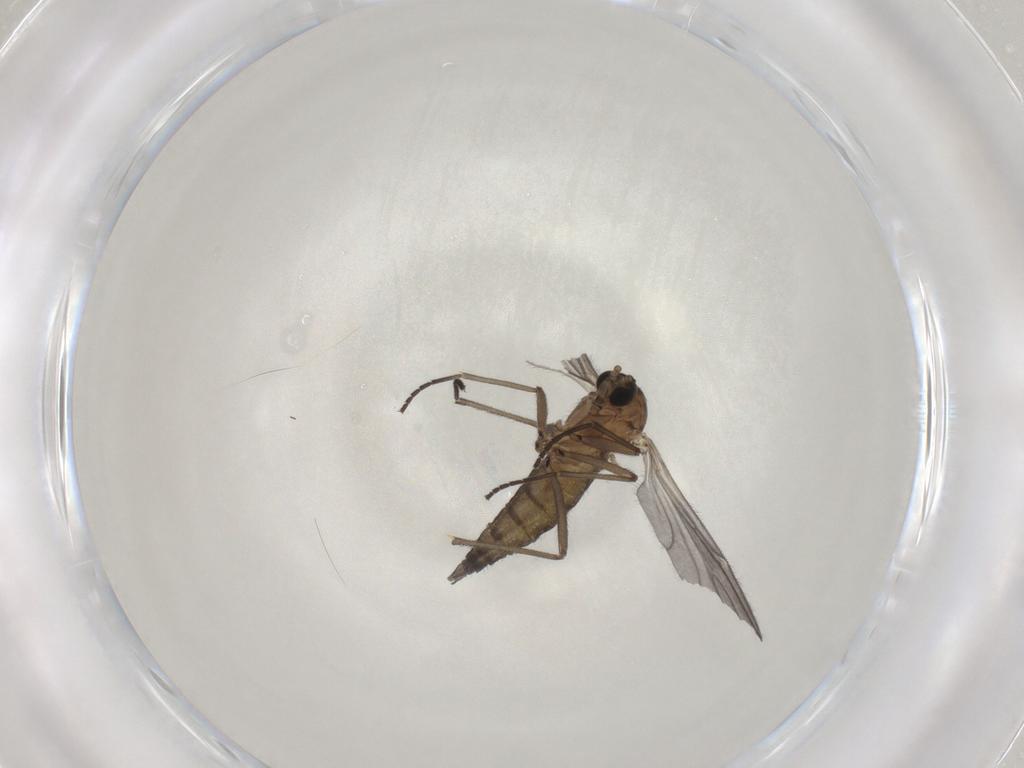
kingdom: Animalia
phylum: Arthropoda
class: Insecta
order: Diptera
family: Sciaridae
